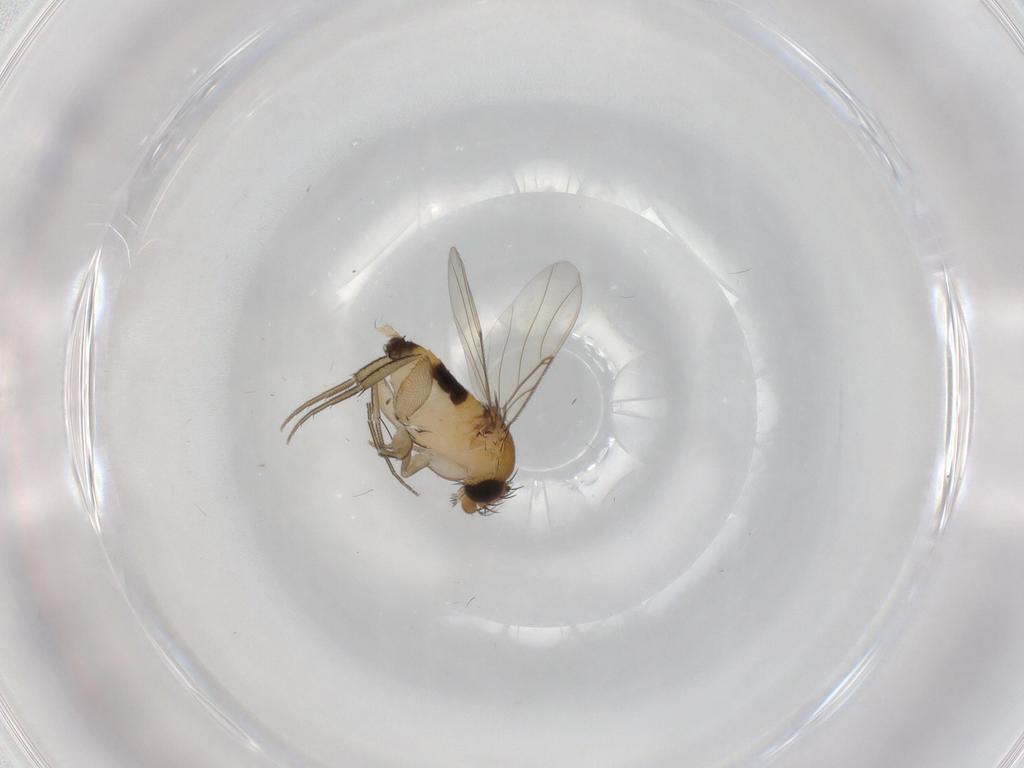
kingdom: Animalia
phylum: Arthropoda
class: Insecta
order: Diptera
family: Phoridae
